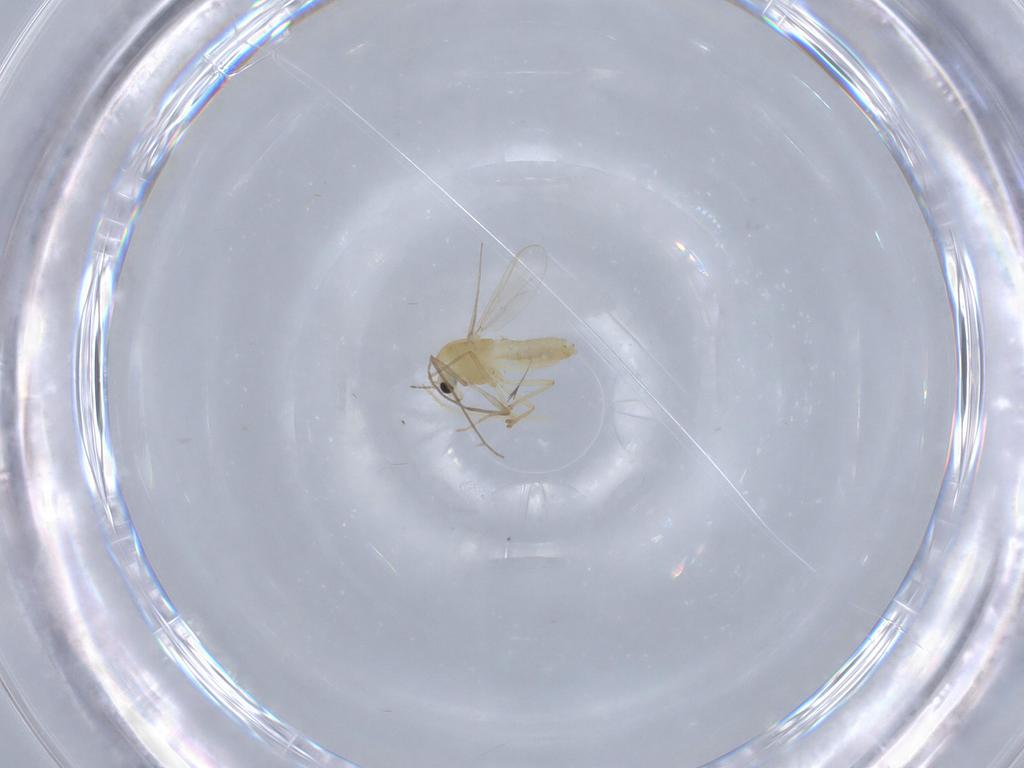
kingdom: Animalia
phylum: Arthropoda
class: Insecta
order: Diptera
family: Chironomidae
